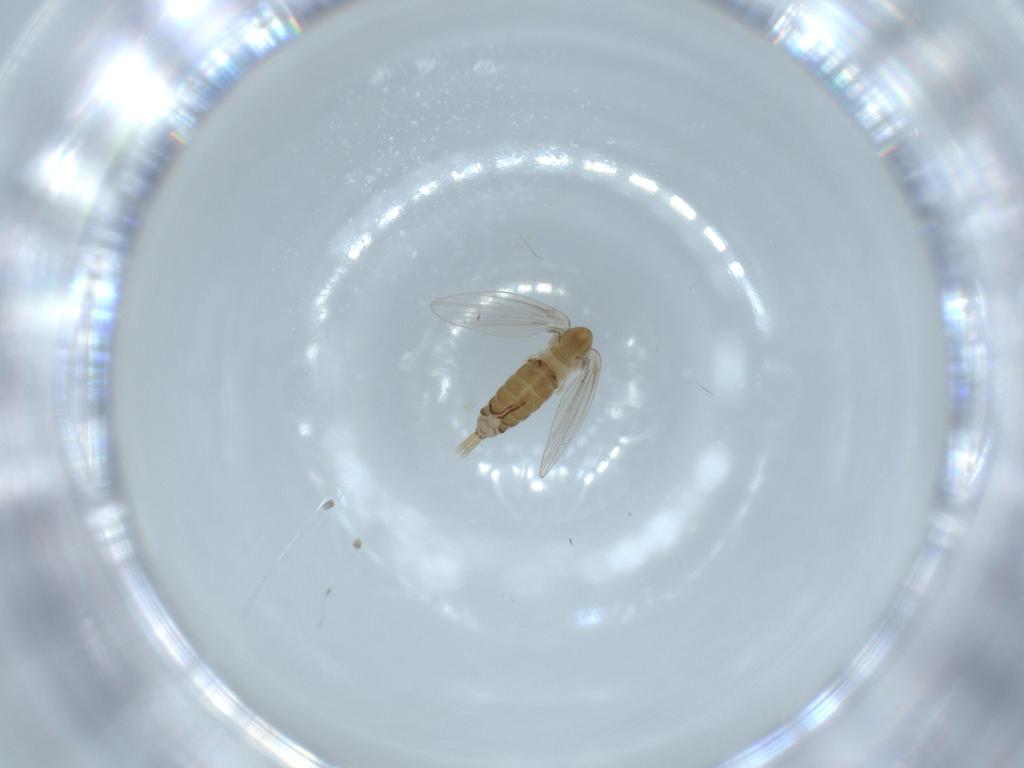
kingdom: Animalia
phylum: Arthropoda
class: Insecta
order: Diptera
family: Psychodidae
